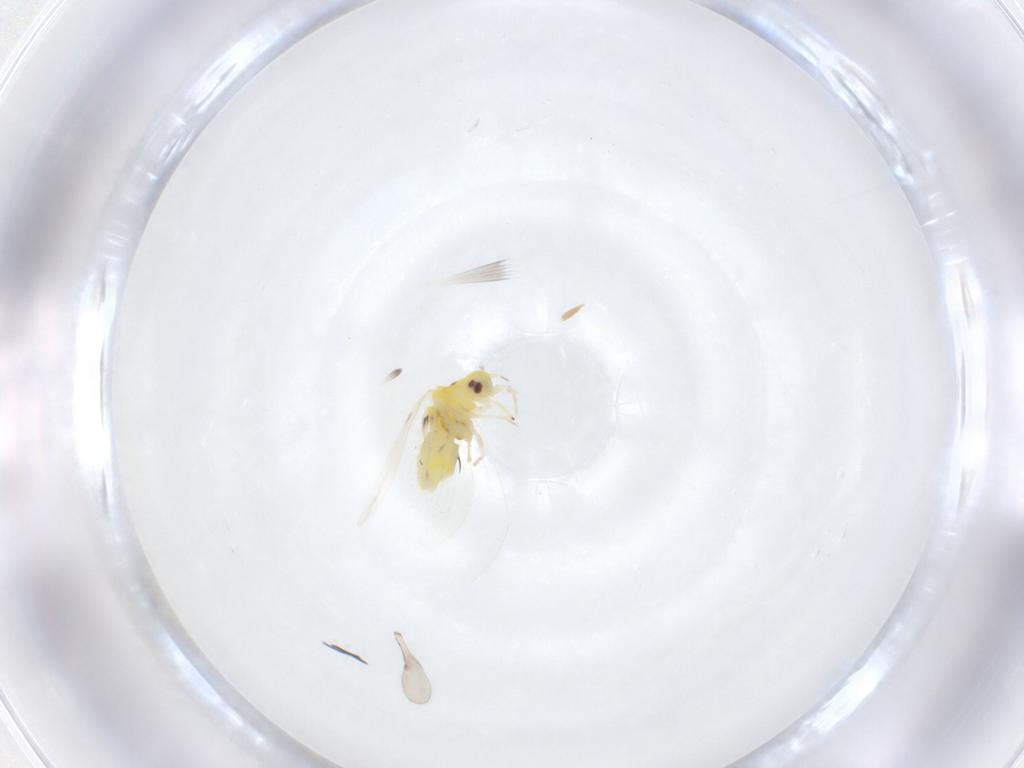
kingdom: Animalia
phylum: Arthropoda
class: Insecta
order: Hemiptera
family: Aleyrodidae
